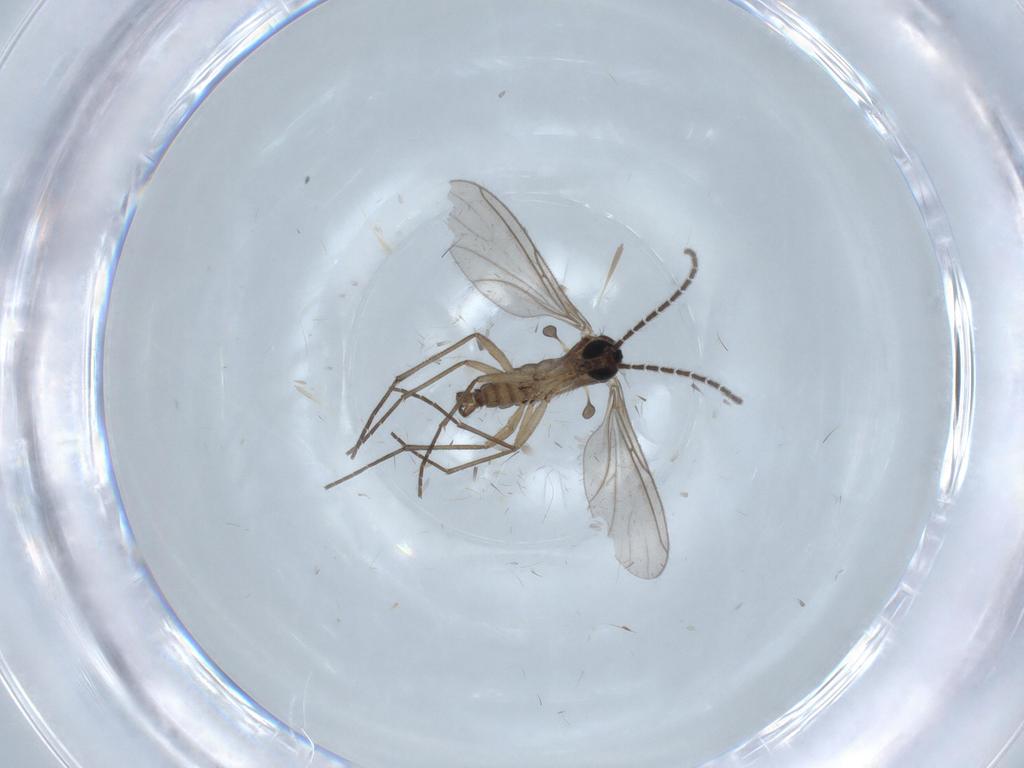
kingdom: Animalia
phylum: Arthropoda
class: Insecta
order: Diptera
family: Sciaridae
